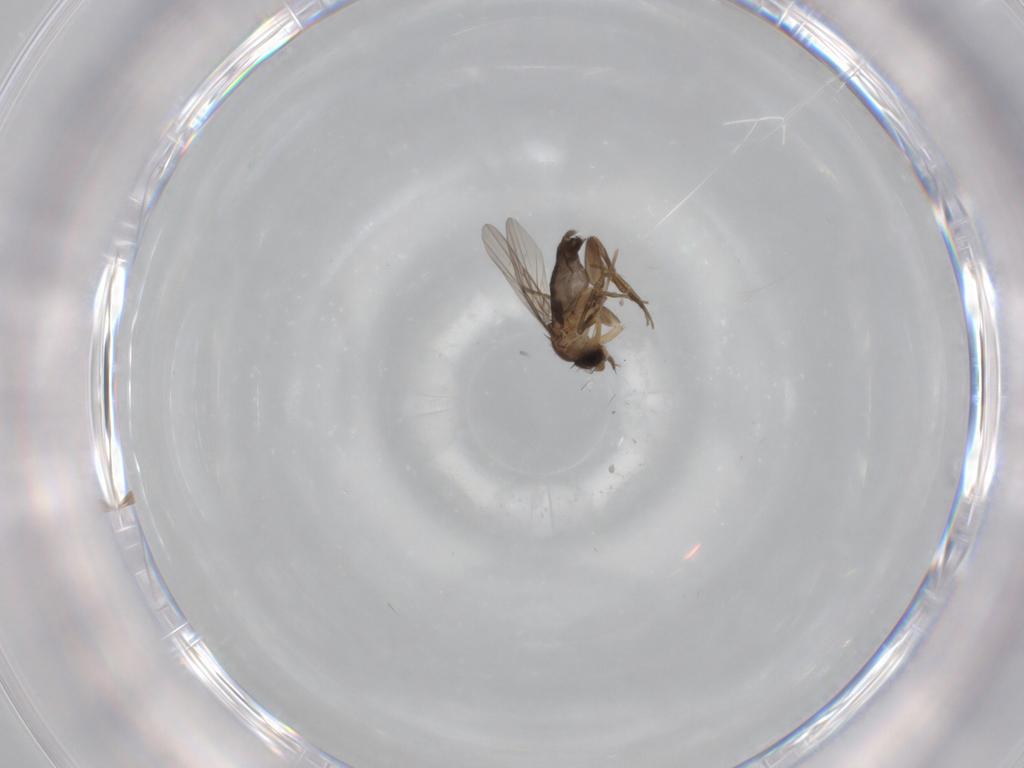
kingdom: Animalia
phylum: Arthropoda
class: Insecta
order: Diptera
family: Phoridae
